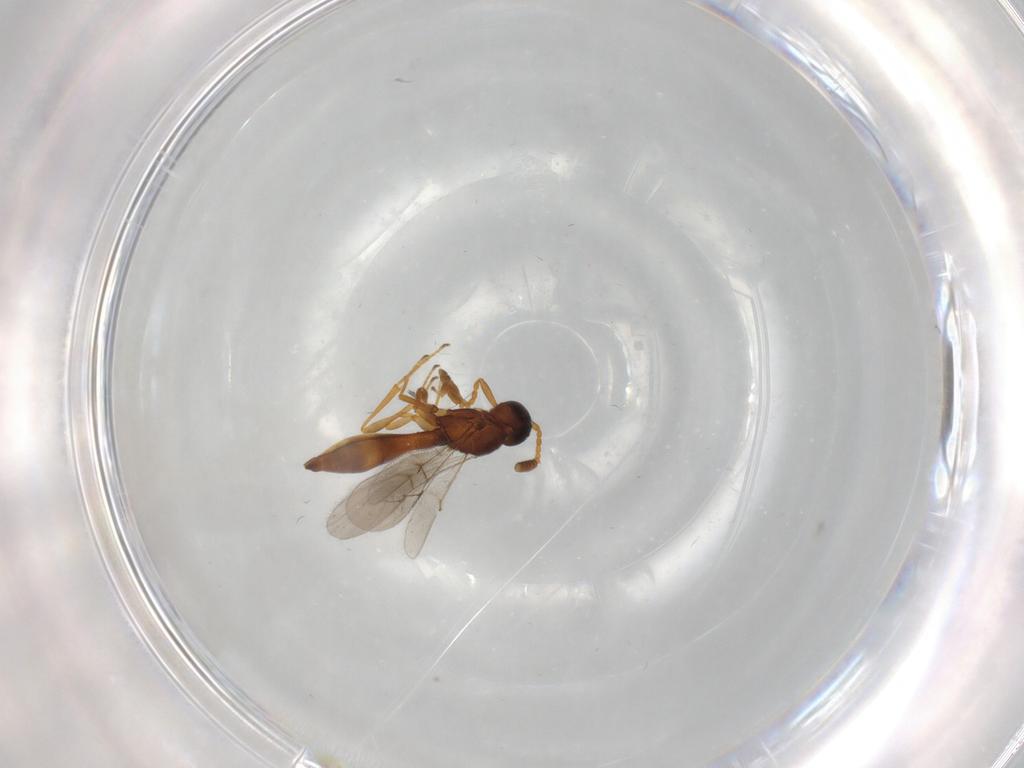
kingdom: Animalia
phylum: Arthropoda
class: Insecta
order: Hymenoptera
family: Scelionidae
